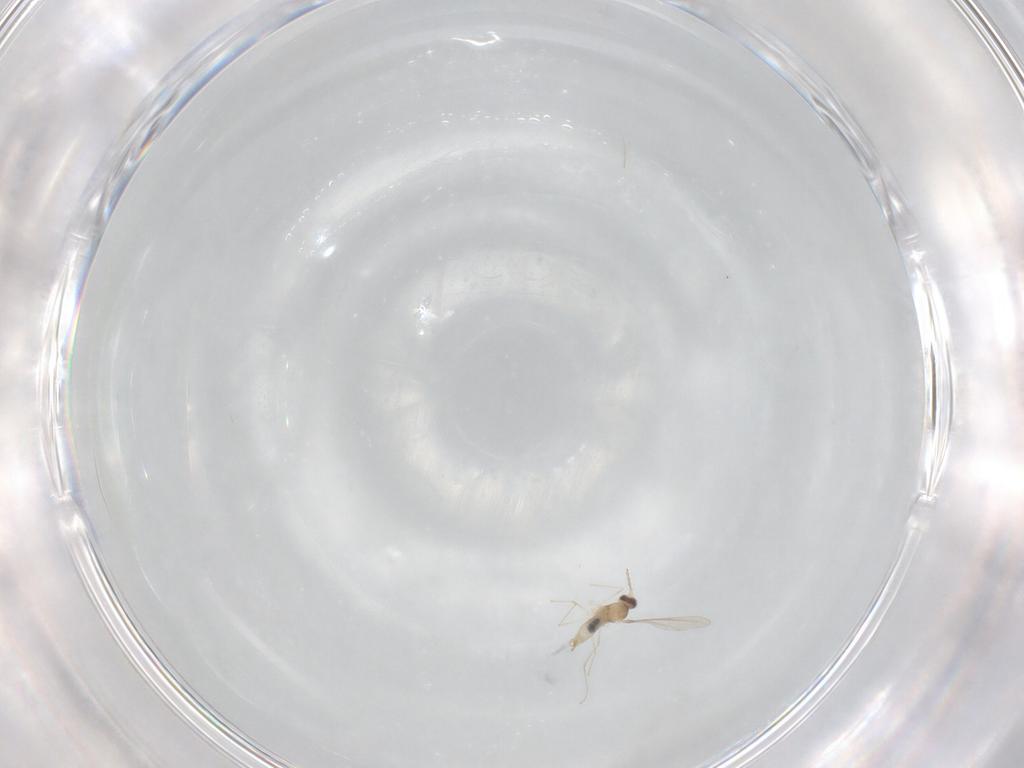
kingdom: Animalia
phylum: Arthropoda
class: Insecta
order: Diptera
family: Cecidomyiidae
